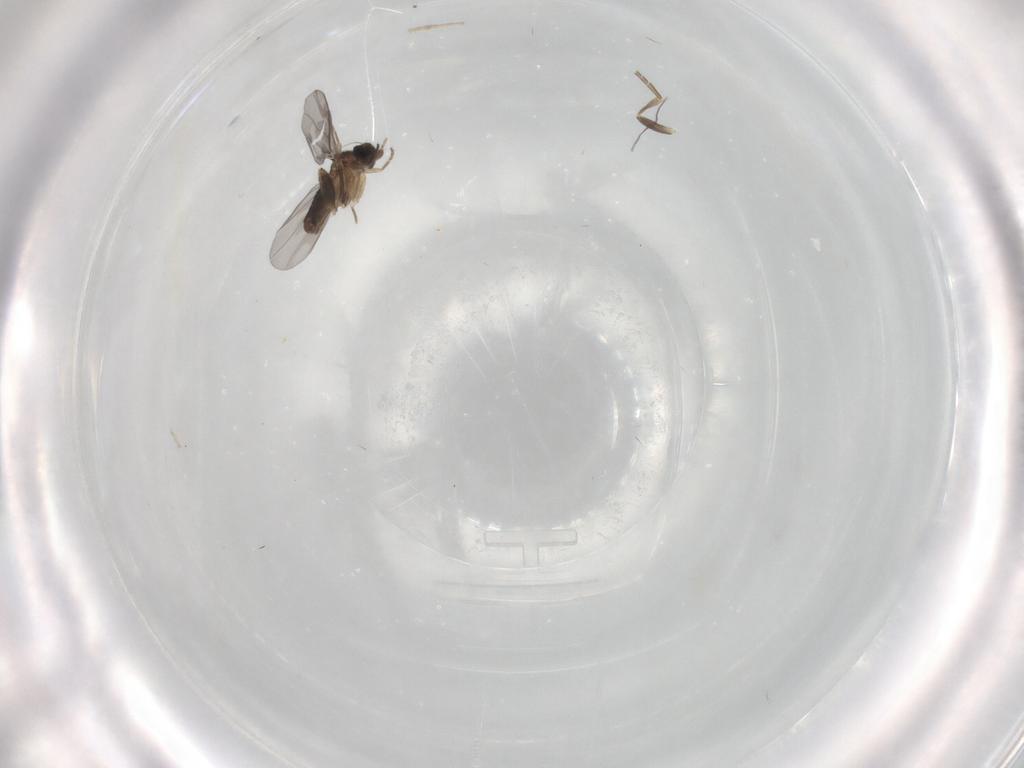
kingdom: Animalia
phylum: Arthropoda
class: Insecta
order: Diptera
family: Phoridae
